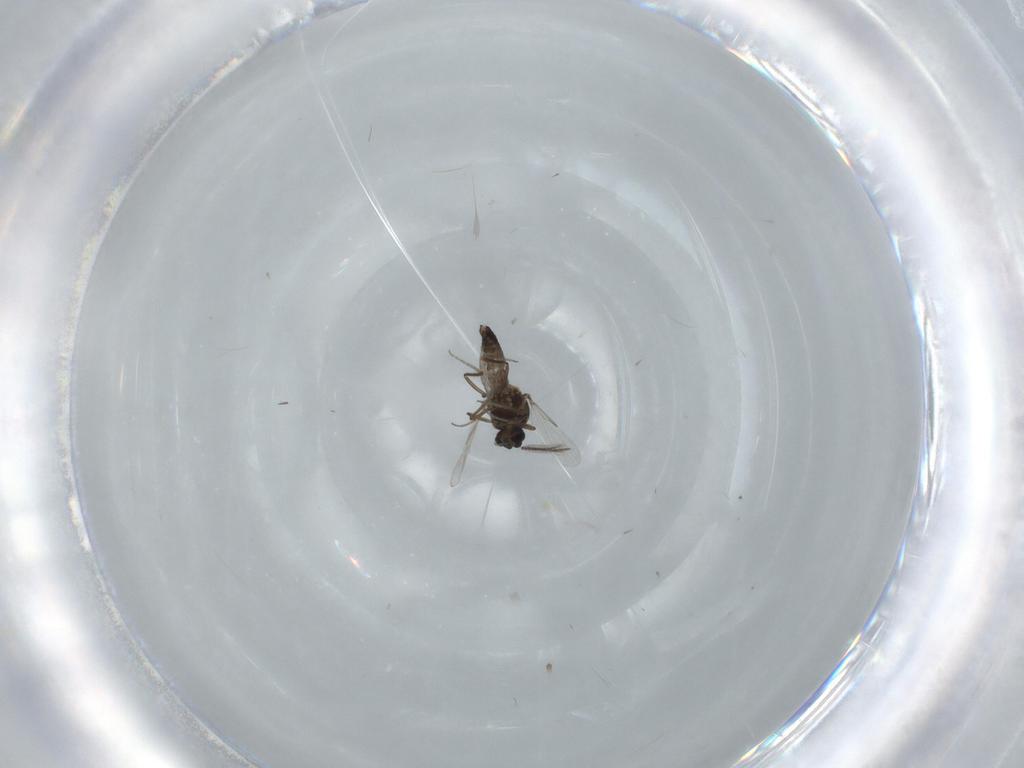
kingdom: Animalia
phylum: Arthropoda
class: Insecta
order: Diptera
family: Ceratopogonidae
